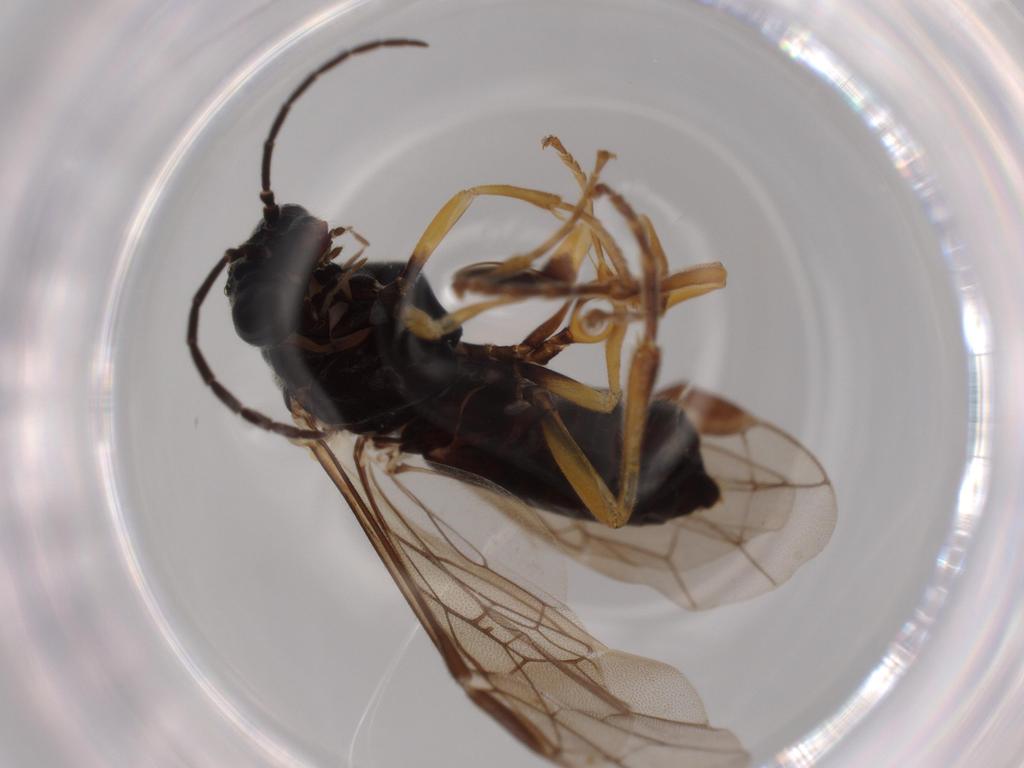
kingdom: Animalia
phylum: Arthropoda
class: Insecta
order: Hymenoptera
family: Braconidae
